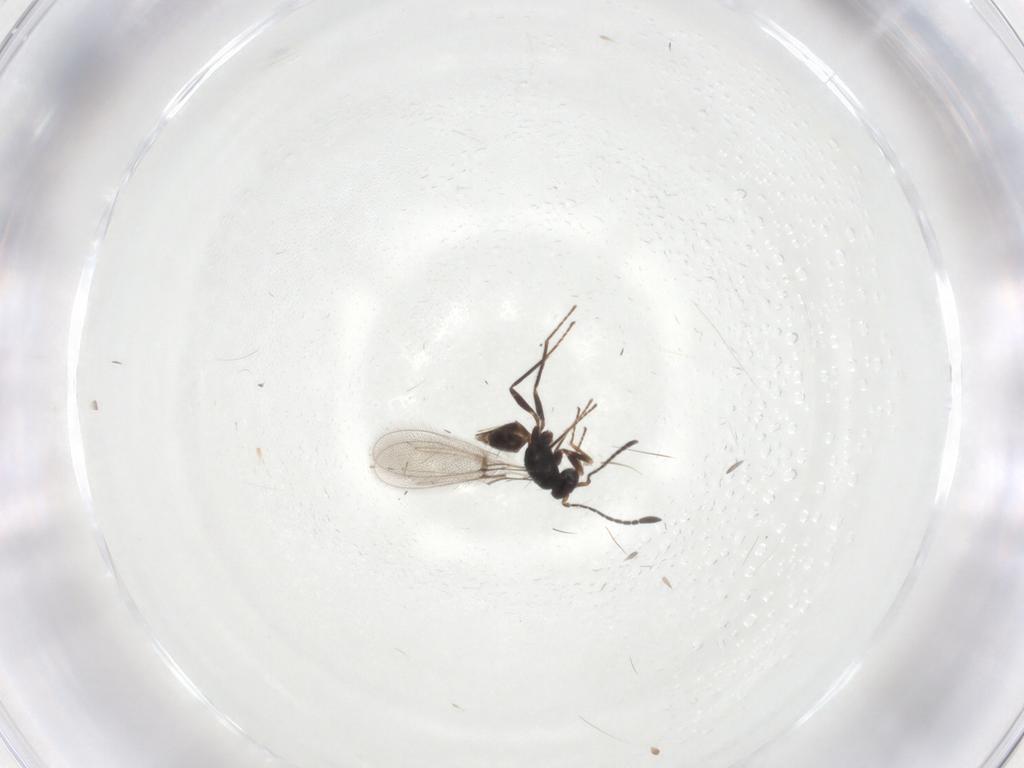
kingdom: Animalia
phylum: Arthropoda
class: Insecta
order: Hymenoptera
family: Mymaridae
